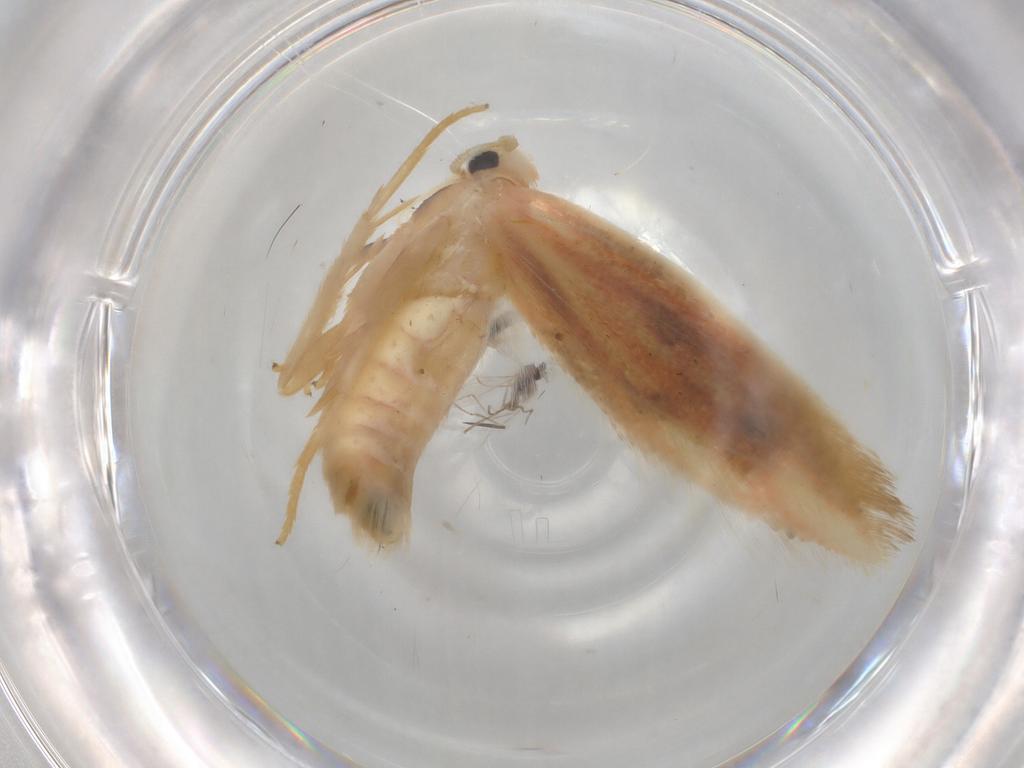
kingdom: Animalia
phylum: Arthropoda
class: Insecta
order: Lepidoptera
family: Geometridae
